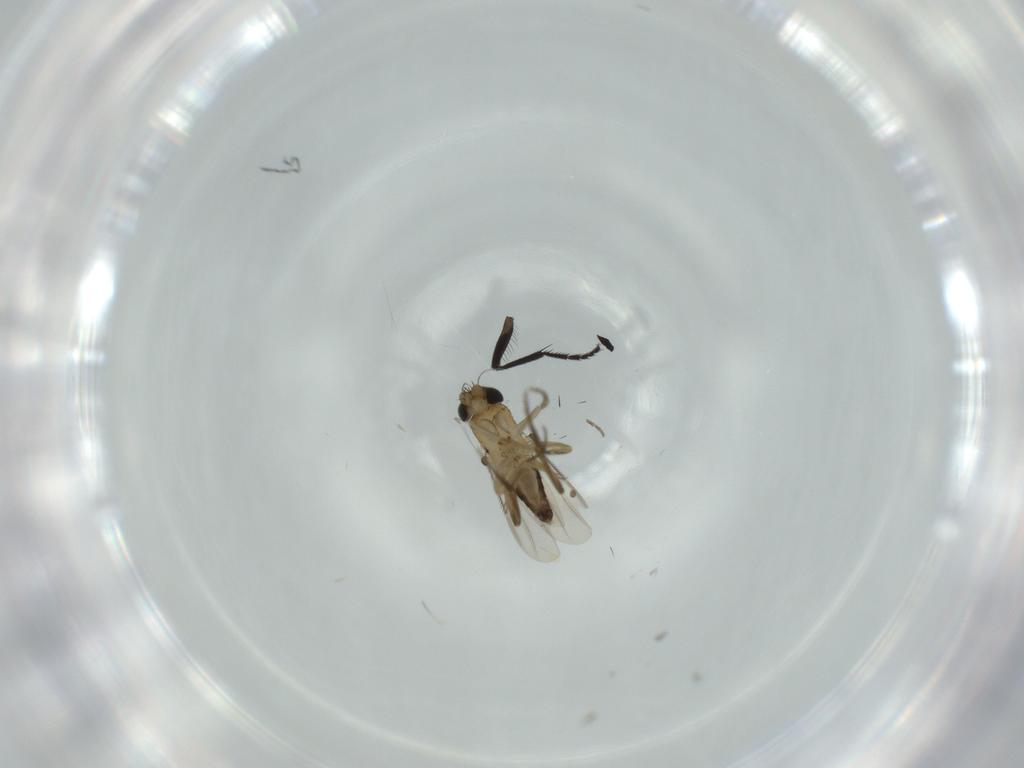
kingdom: Animalia
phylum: Arthropoda
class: Insecta
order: Diptera
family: Phoridae
